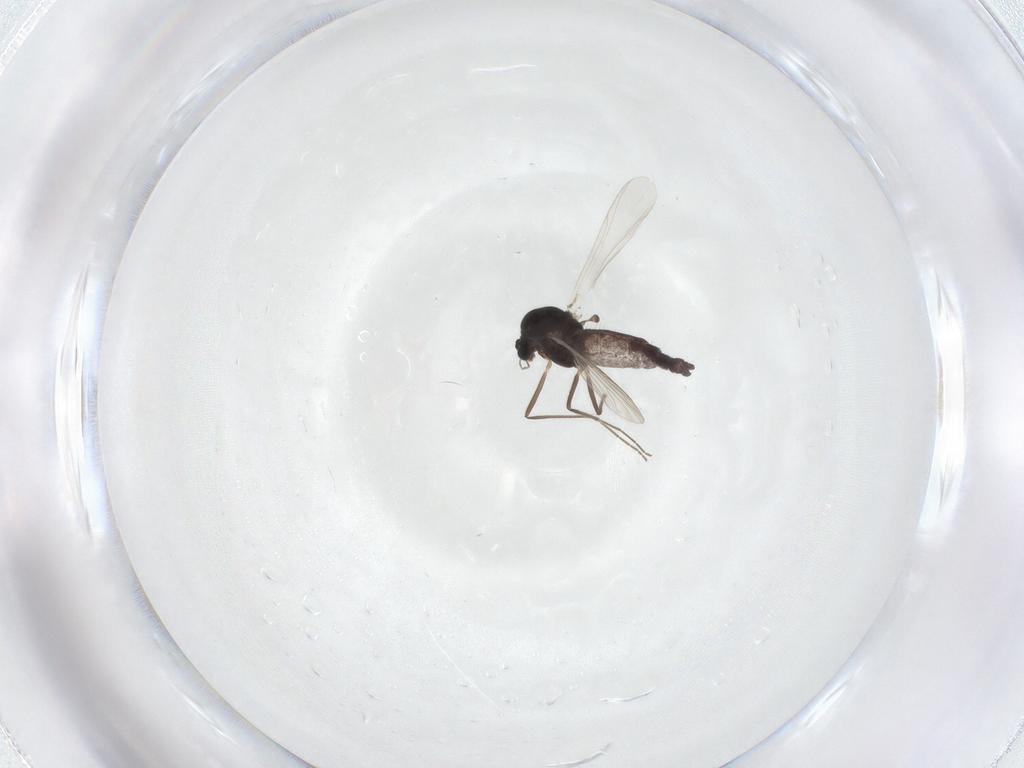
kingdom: Animalia
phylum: Arthropoda
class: Insecta
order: Diptera
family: Chironomidae
